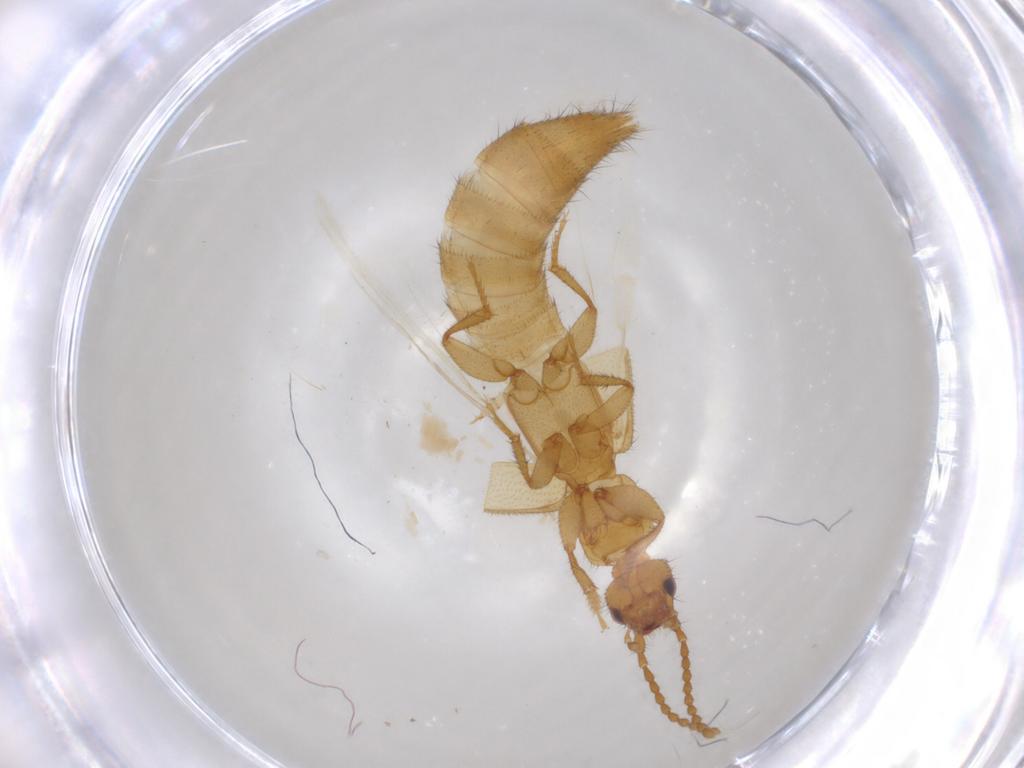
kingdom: Animalia
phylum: Arthropoda
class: Insecta
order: Coleoptera
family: Staphylinidae
